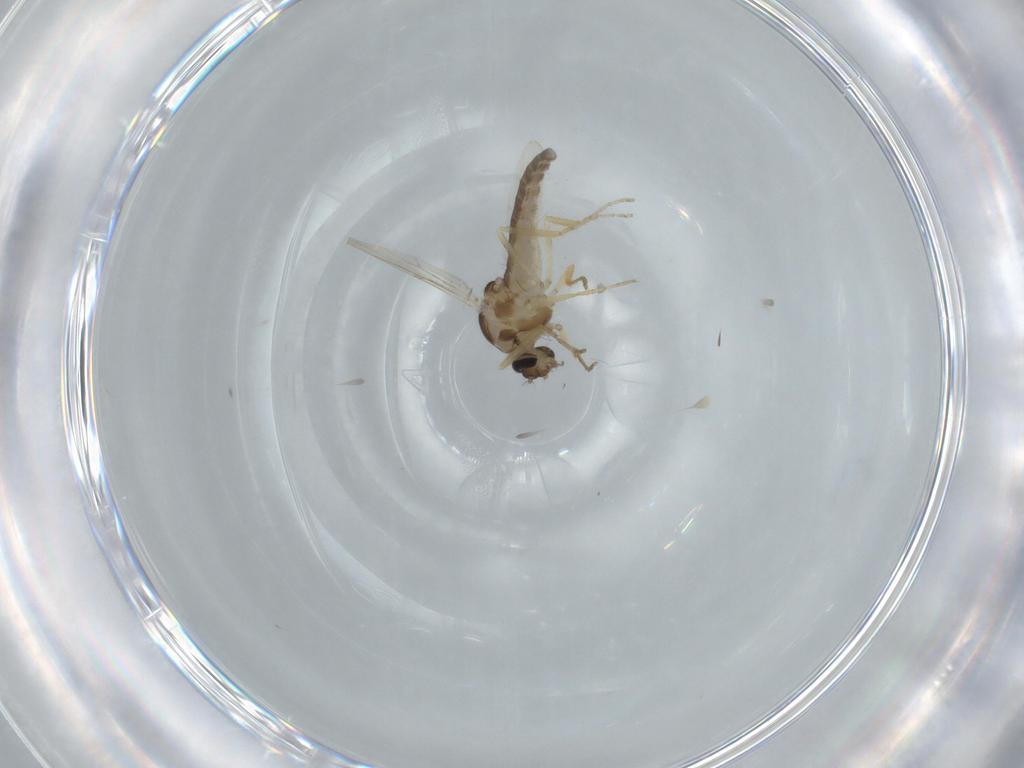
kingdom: Animalia
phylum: Arthropoda
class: Insecta
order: Diptera
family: Ceratopogonidae
